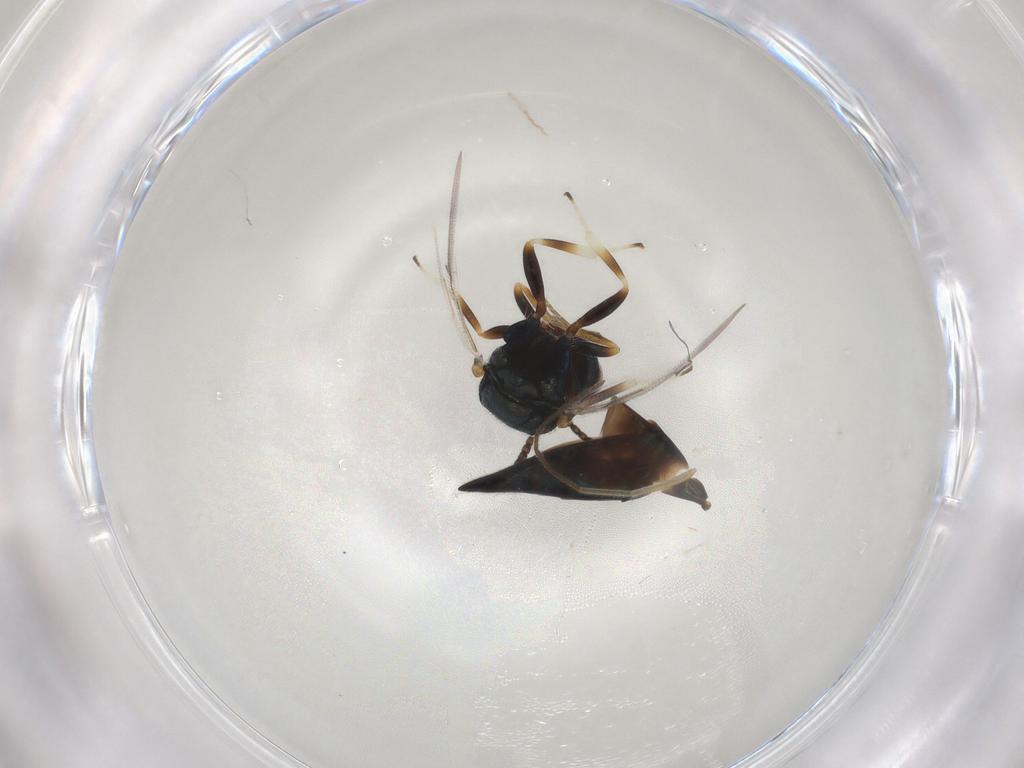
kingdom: Animalia
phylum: Arthropoda
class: Insecta
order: Hymenoptera
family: Pteromalidae
